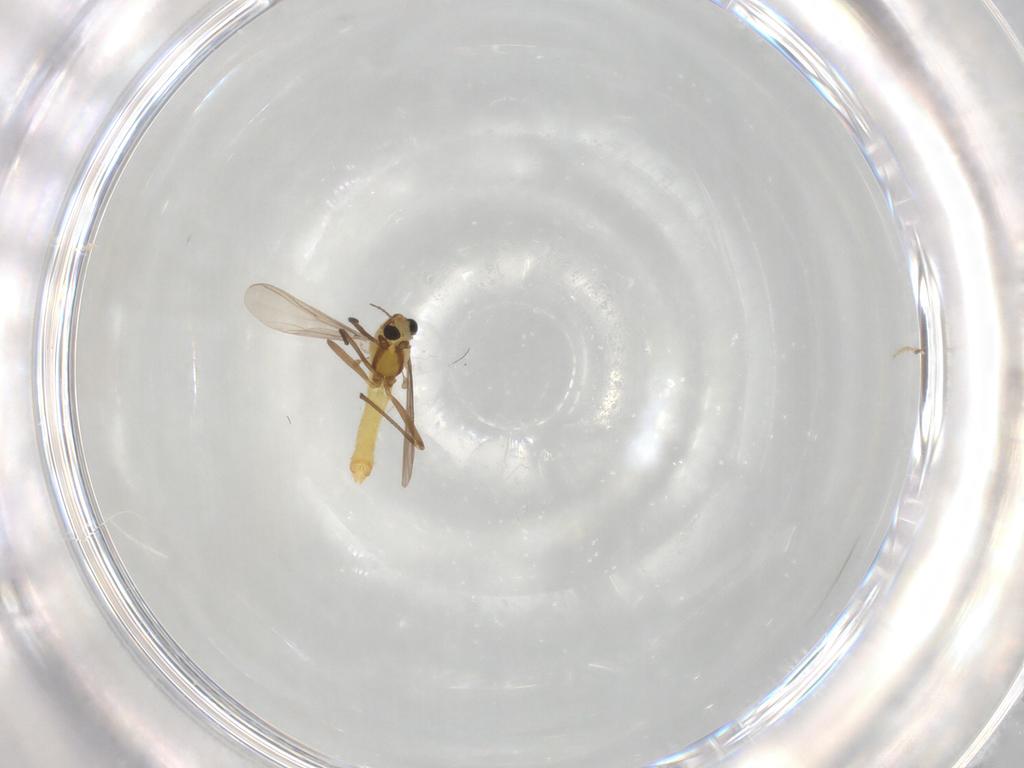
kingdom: Animalia
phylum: Arthropoda
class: Insecta
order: Diptera
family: Chironomidae
